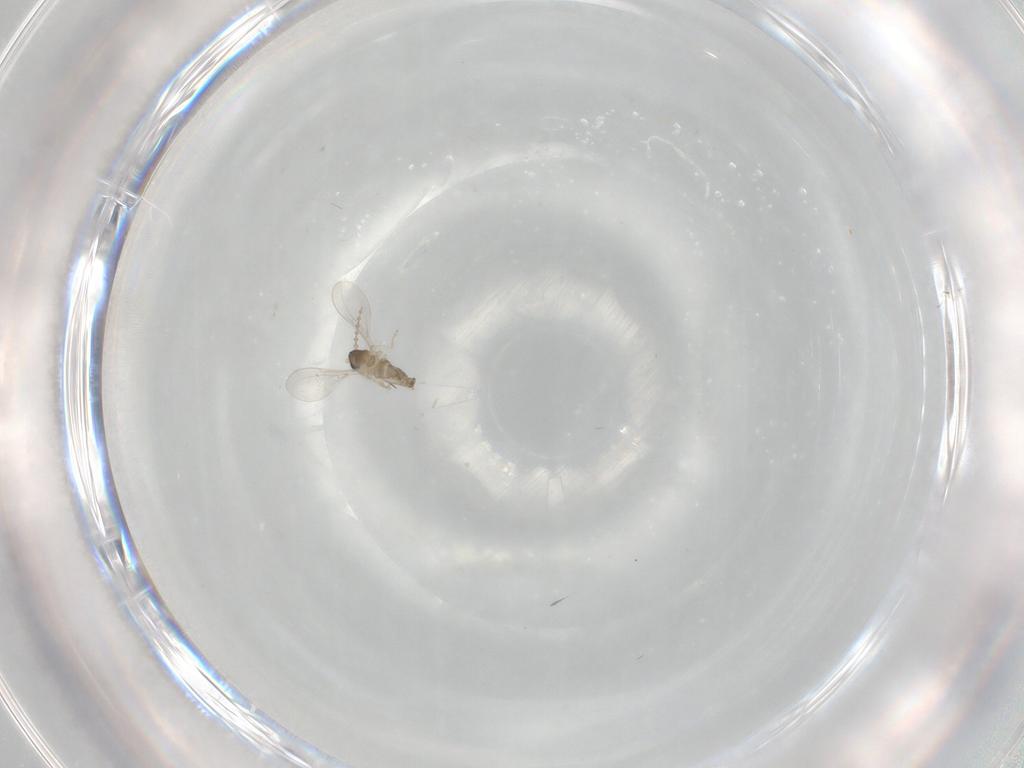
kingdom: Animalia
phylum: Arthropoda
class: Insecta
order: Diptera
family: Cecidomyiidae
